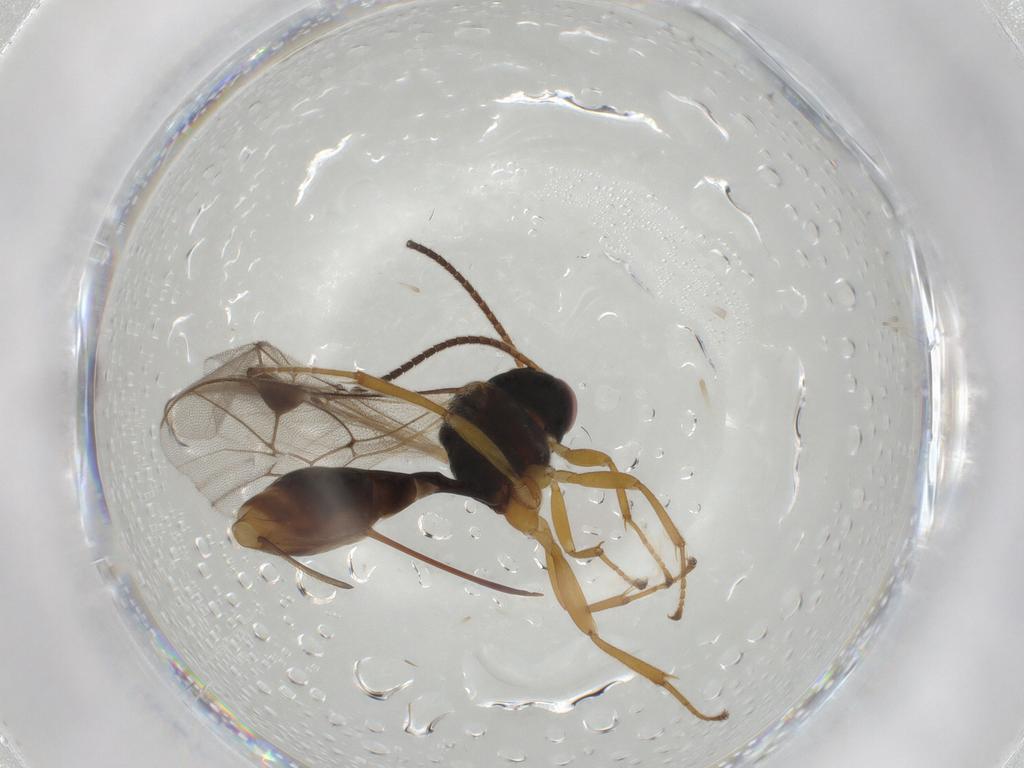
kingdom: Animalia
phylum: Arthropoda
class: Insecta
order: Hymenoptera
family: Ichneumonidae
